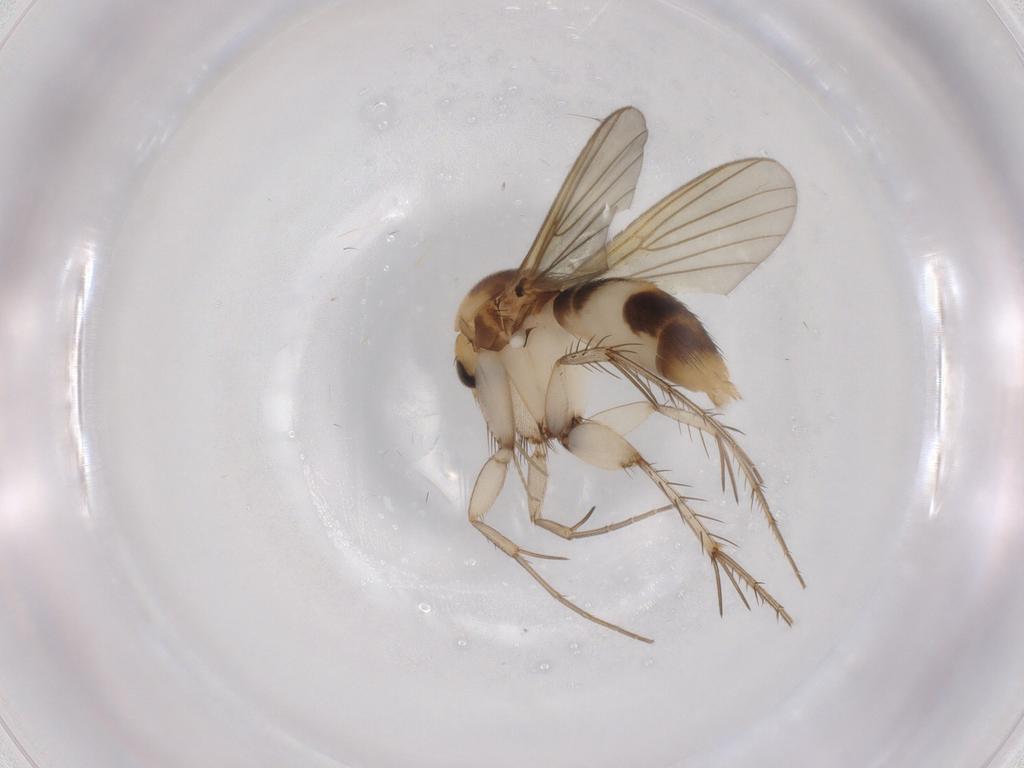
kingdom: Animalia
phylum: Arthropoda
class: Insecta
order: Diptera
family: Mycetophilidae
